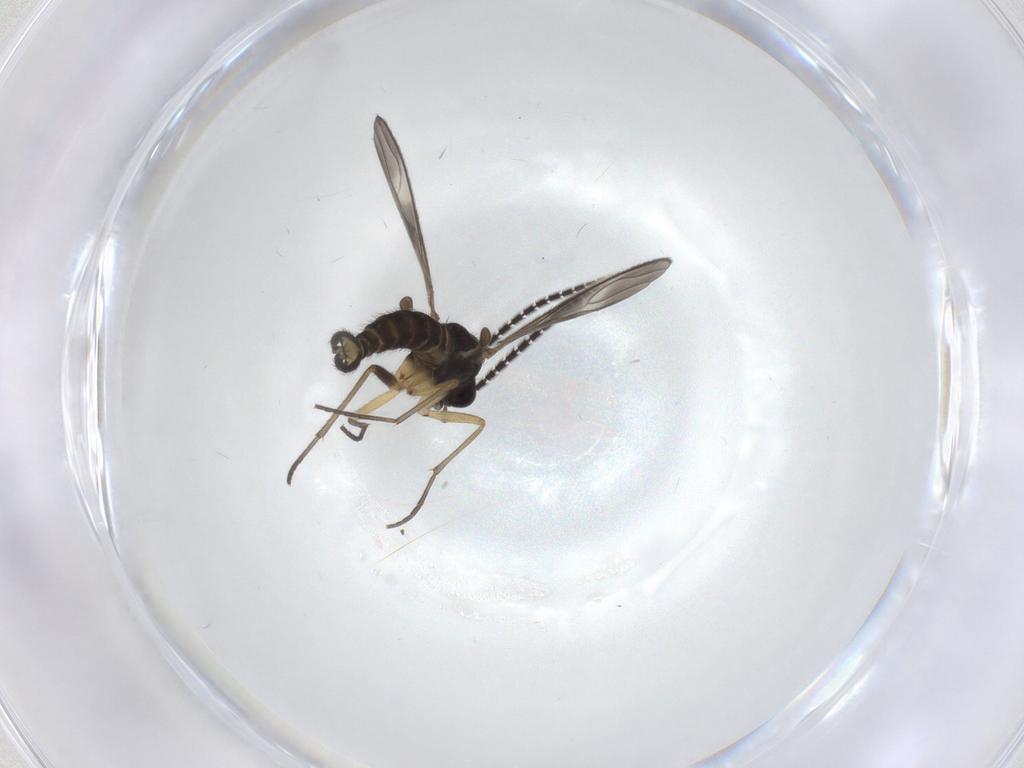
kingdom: Animalia
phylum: Arthropoda
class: Insecta
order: Diptera
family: Sciaridae
